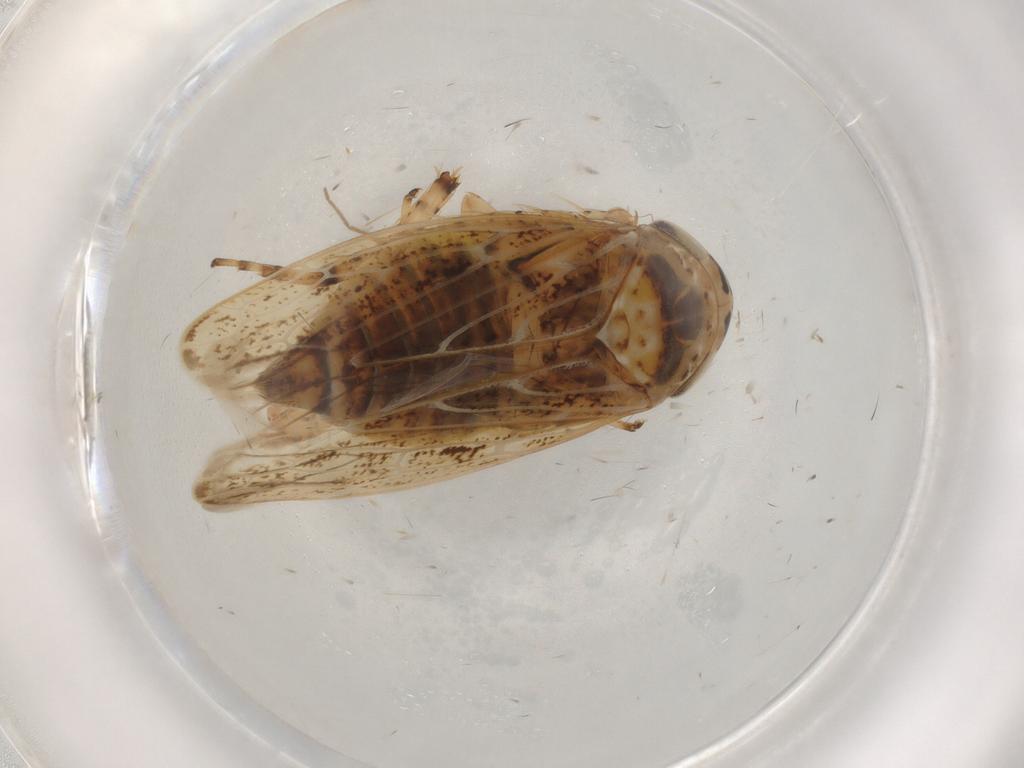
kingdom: Animalia
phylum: Arthropoda
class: Insecta
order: Hemiptera
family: Cicadellidae
